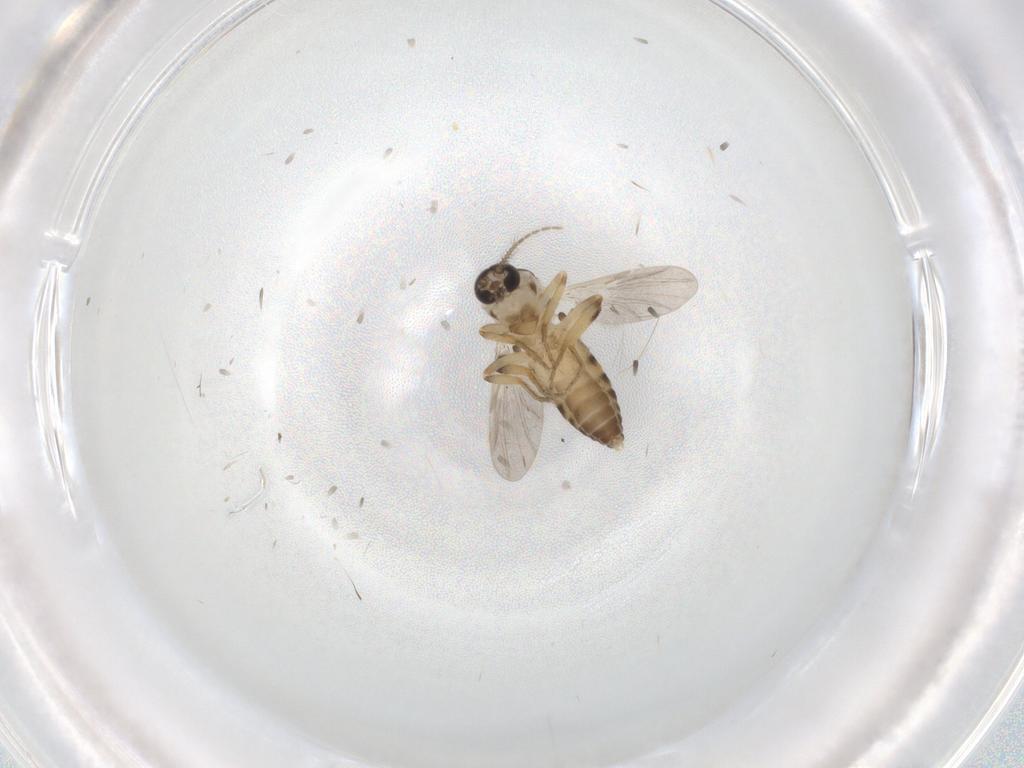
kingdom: Animalia
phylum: Arthropoda
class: Insecta
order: Diptera
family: Ceratopogonidae
